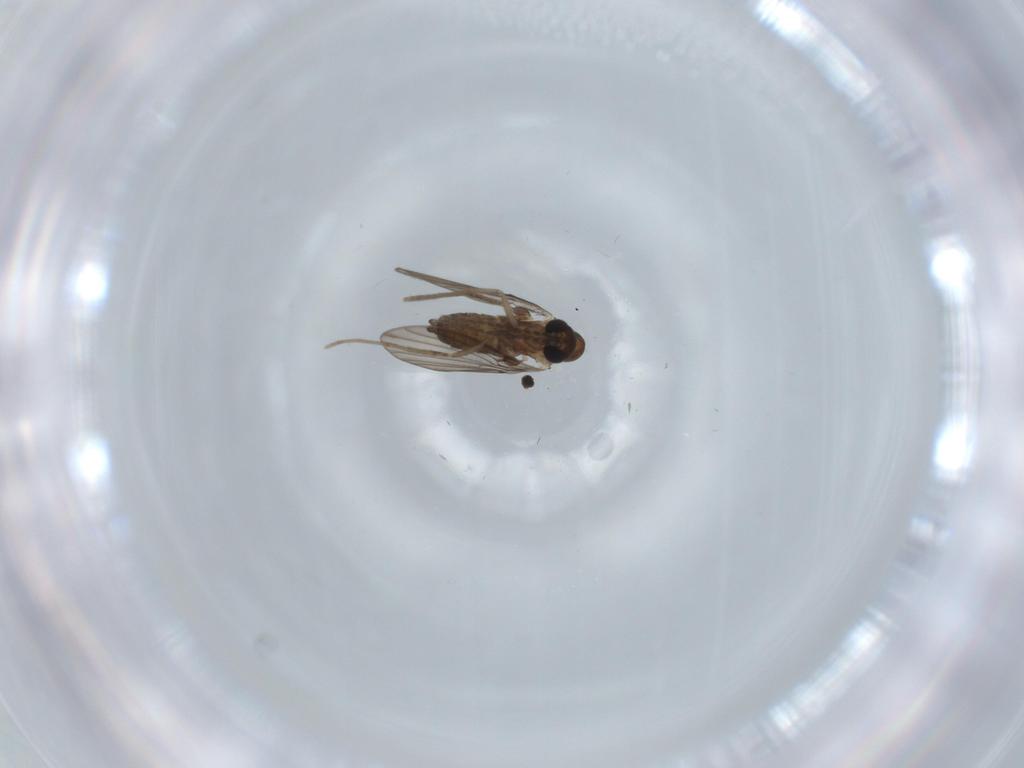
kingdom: Animalia
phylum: Arthropoda
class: Insecta
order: Diptera
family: Psychodidae
